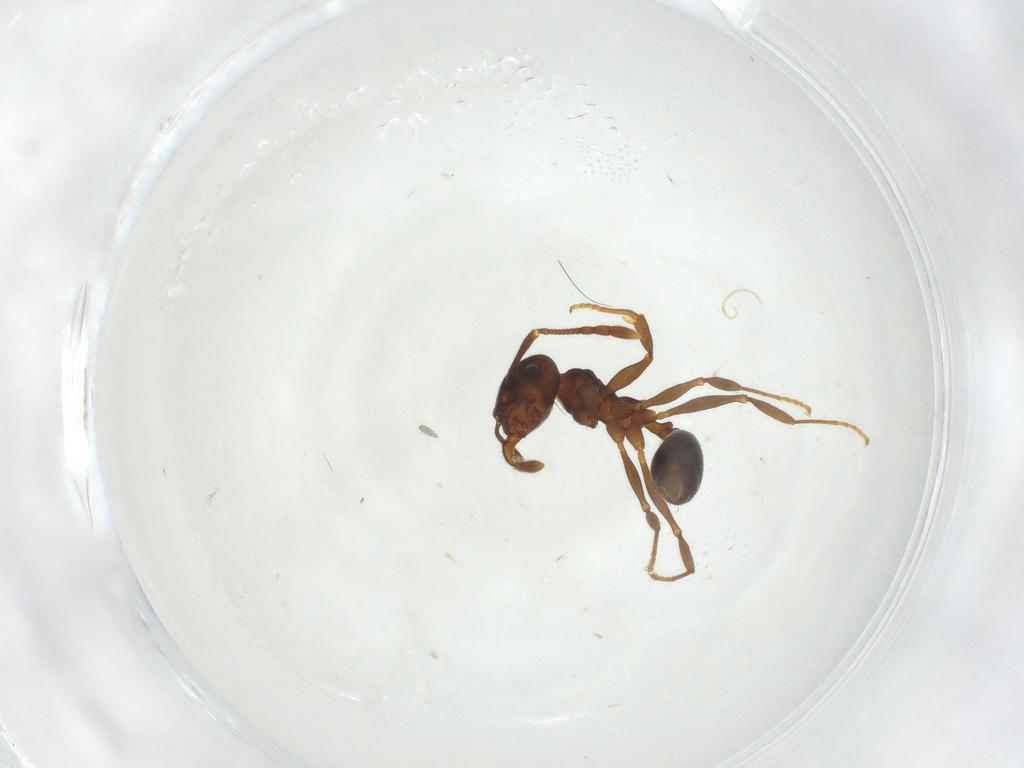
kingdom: Animalia
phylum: Arthropoda
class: Insecta
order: Hymenoptera
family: Formicidae
